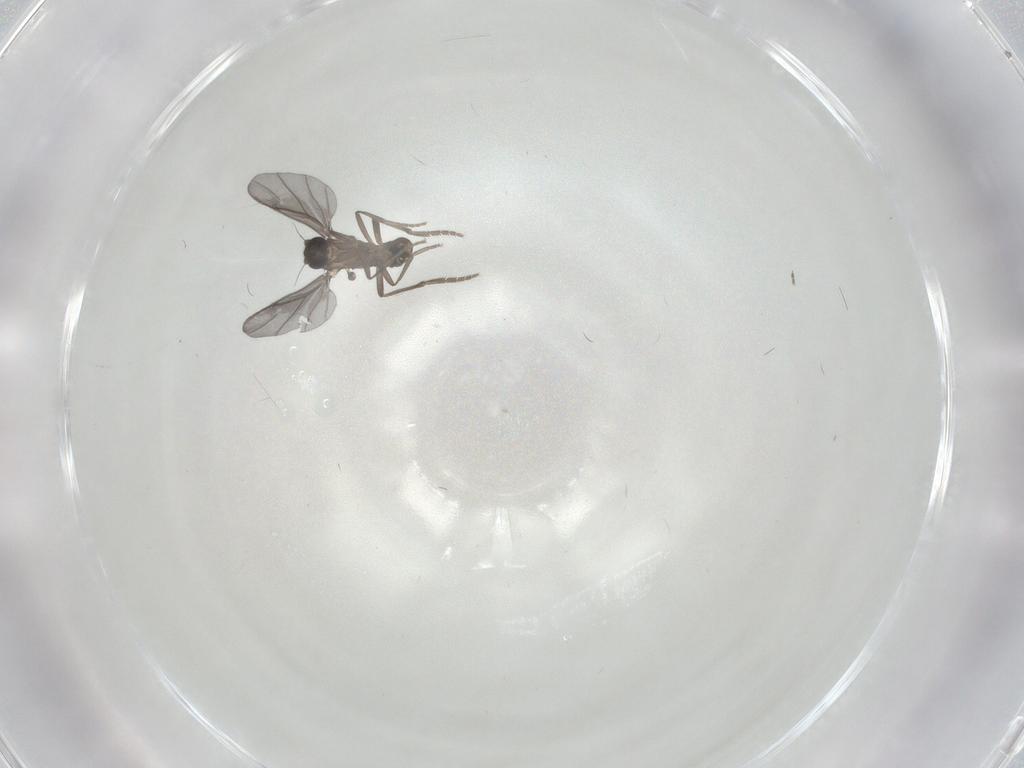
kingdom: Animalia
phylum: Arthropoda
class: Insecta
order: Diptera
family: Phoridae
